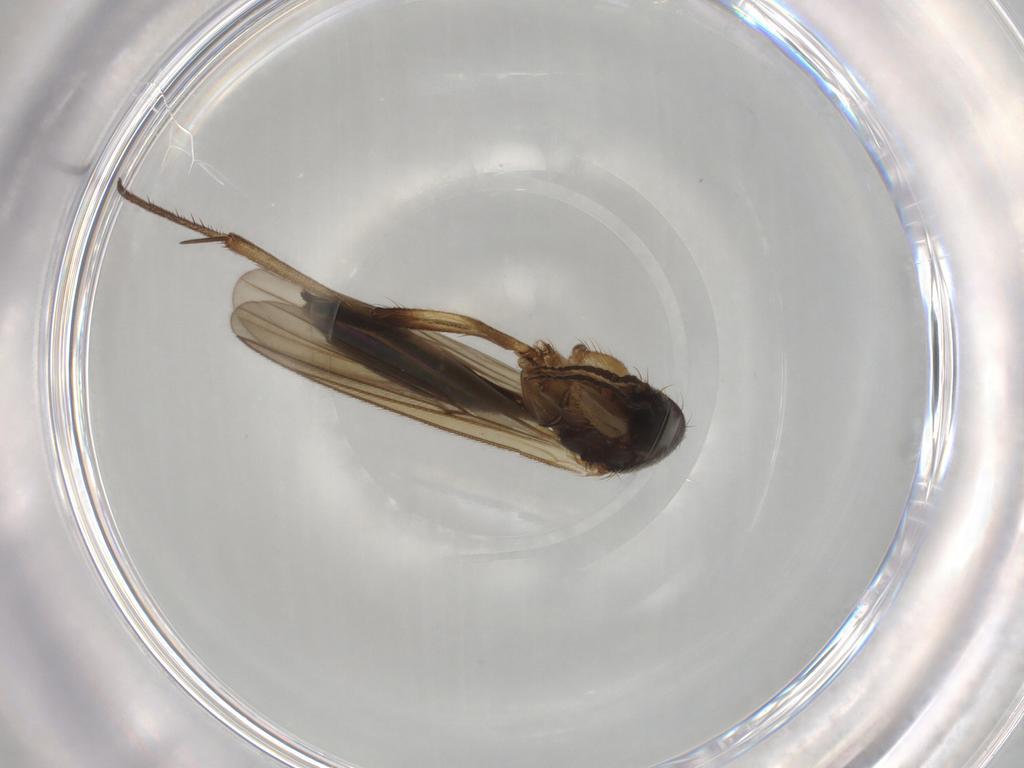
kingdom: Animalia
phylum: Arthropoda
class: Insecta
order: Diptera
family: Mycetophilidae
